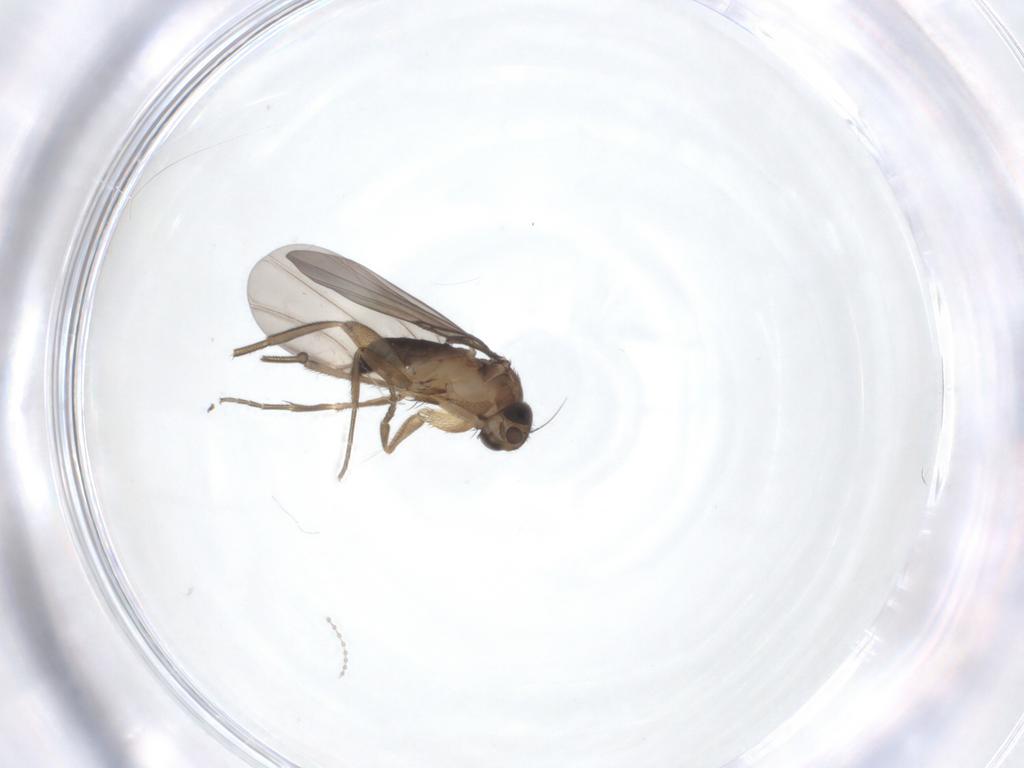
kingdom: Animalia
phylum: Arthropoda
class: Insecta
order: Diptera
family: Cecidomyiidae
